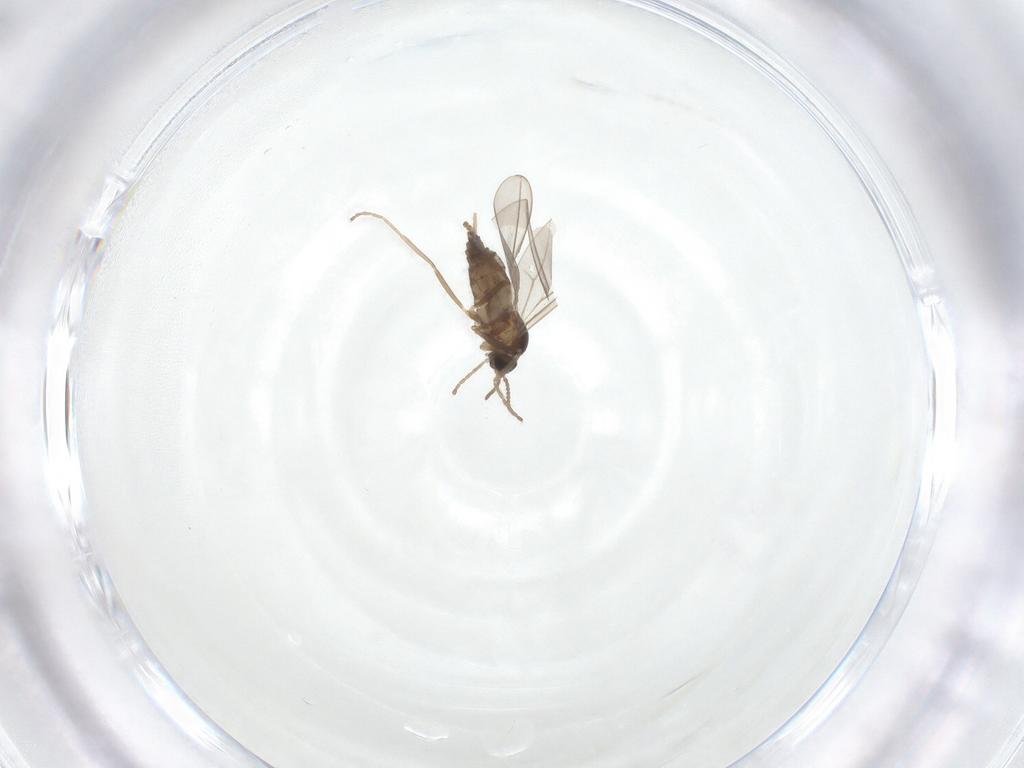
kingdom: Animalia
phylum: Arthropoda
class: Insecta
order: Diptera
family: Cecidomyiidae
